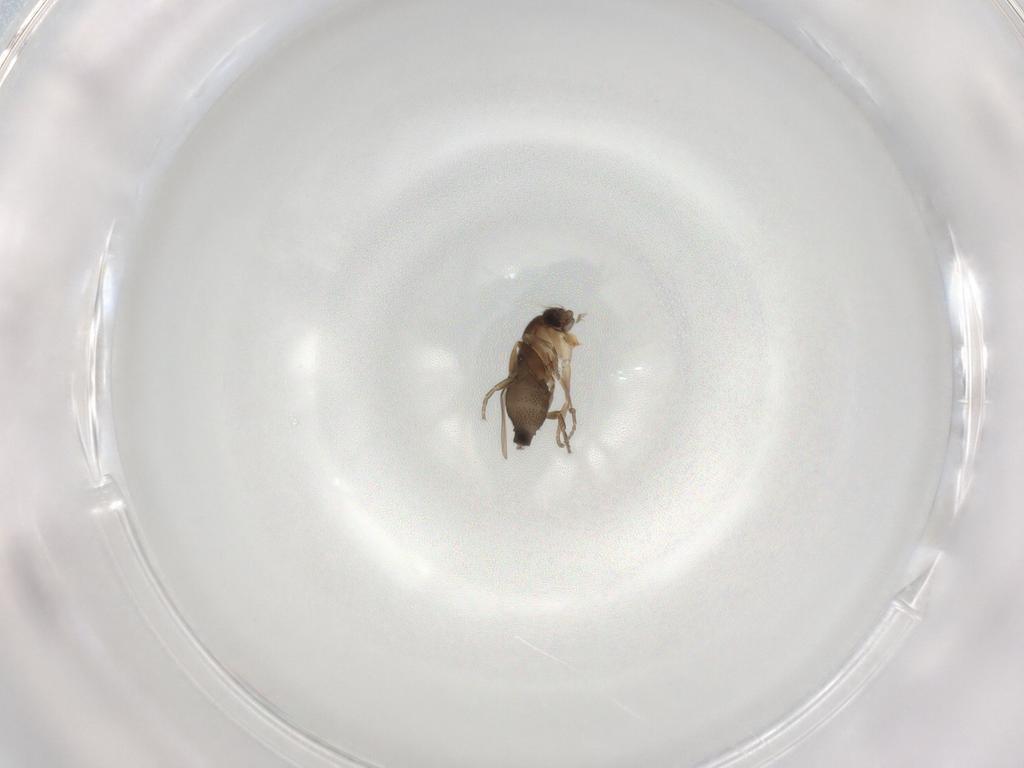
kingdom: Animalia
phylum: Arthropoda
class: Insecta
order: Diptera
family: Phoridae
